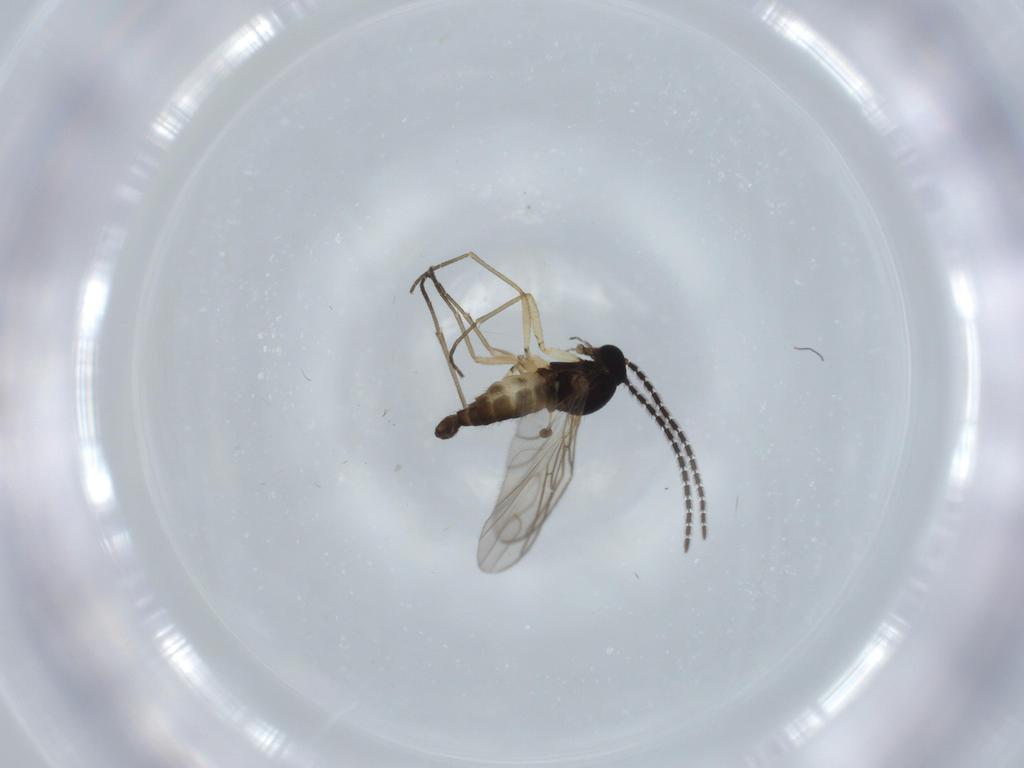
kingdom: Animalia
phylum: Arthropoda
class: Insecta
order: Diptera
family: Sciaridae
